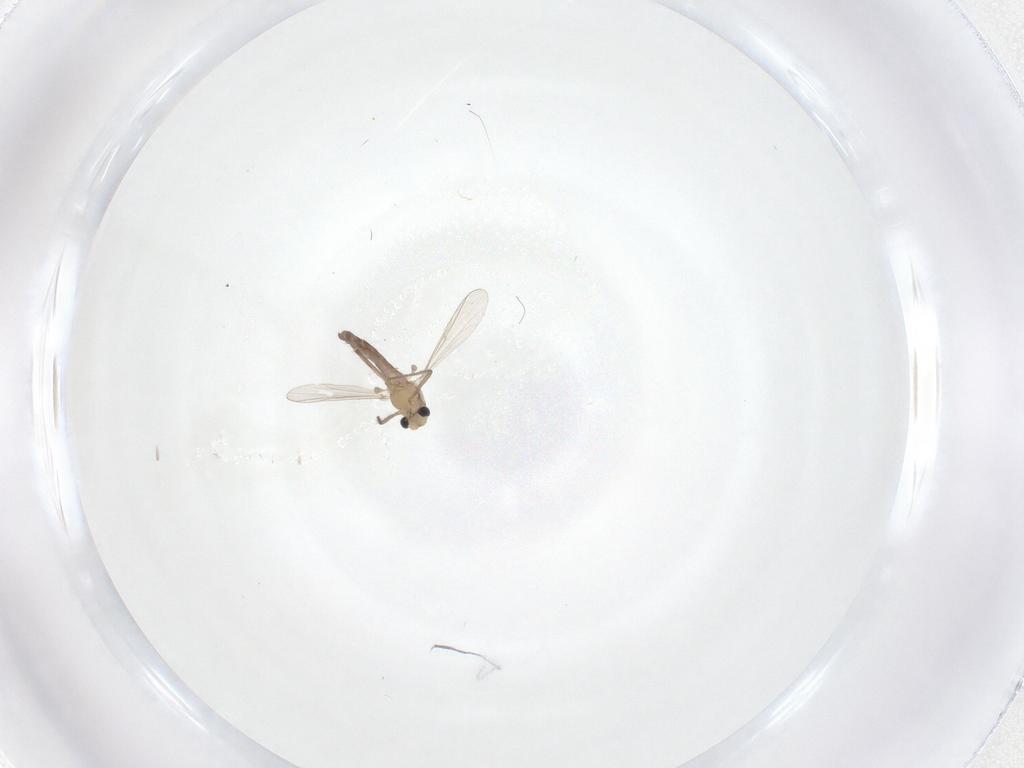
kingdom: Animalia
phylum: Arthropoda
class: Insecta
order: Diptera
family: Chironomidae
